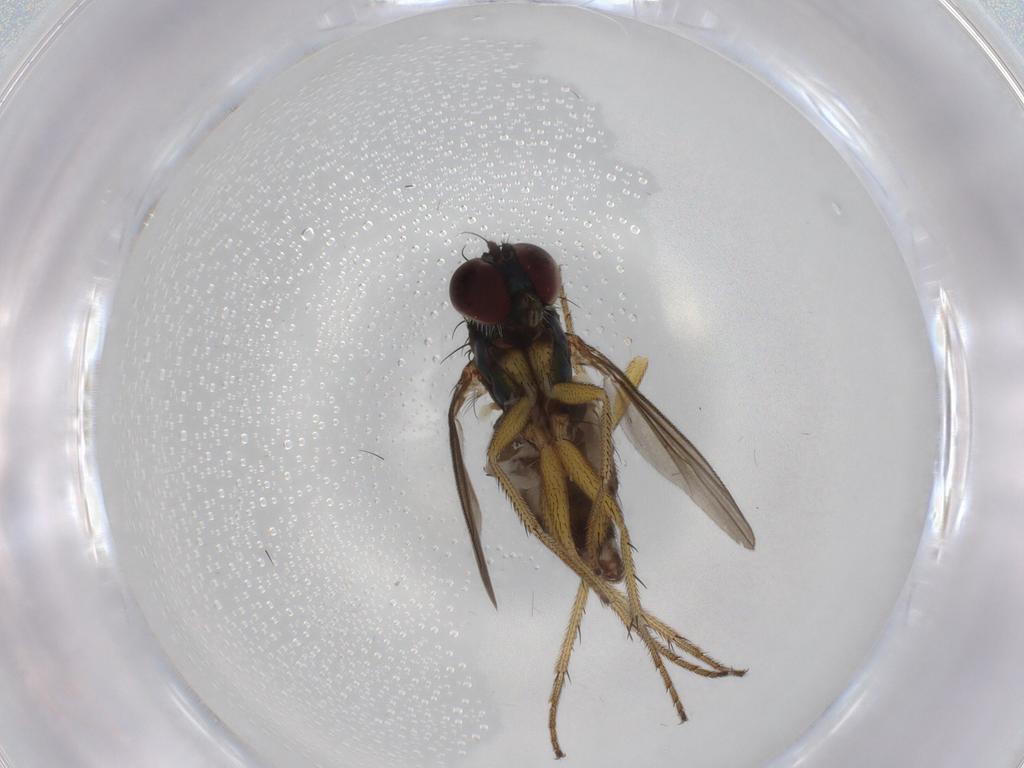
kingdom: Animalia
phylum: Arthropoda
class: Insecta
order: Diptera
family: Dolichopodidae
